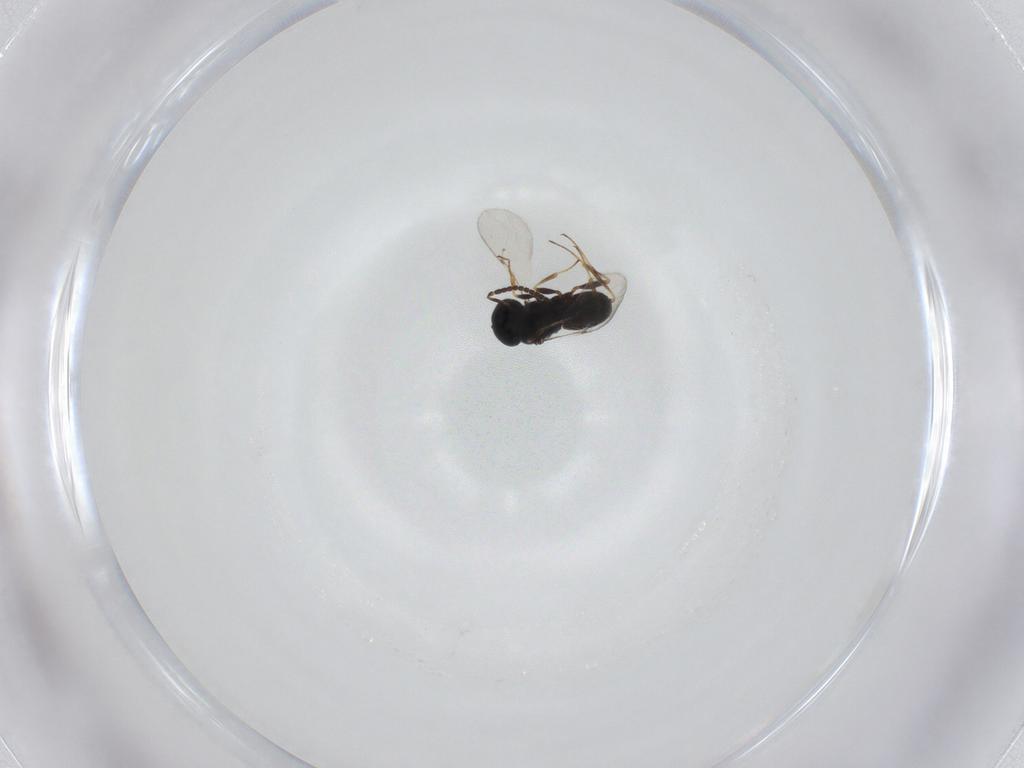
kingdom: Animalia
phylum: Arthropoda
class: Insecta
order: Hymenoptera
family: Scelionidae
